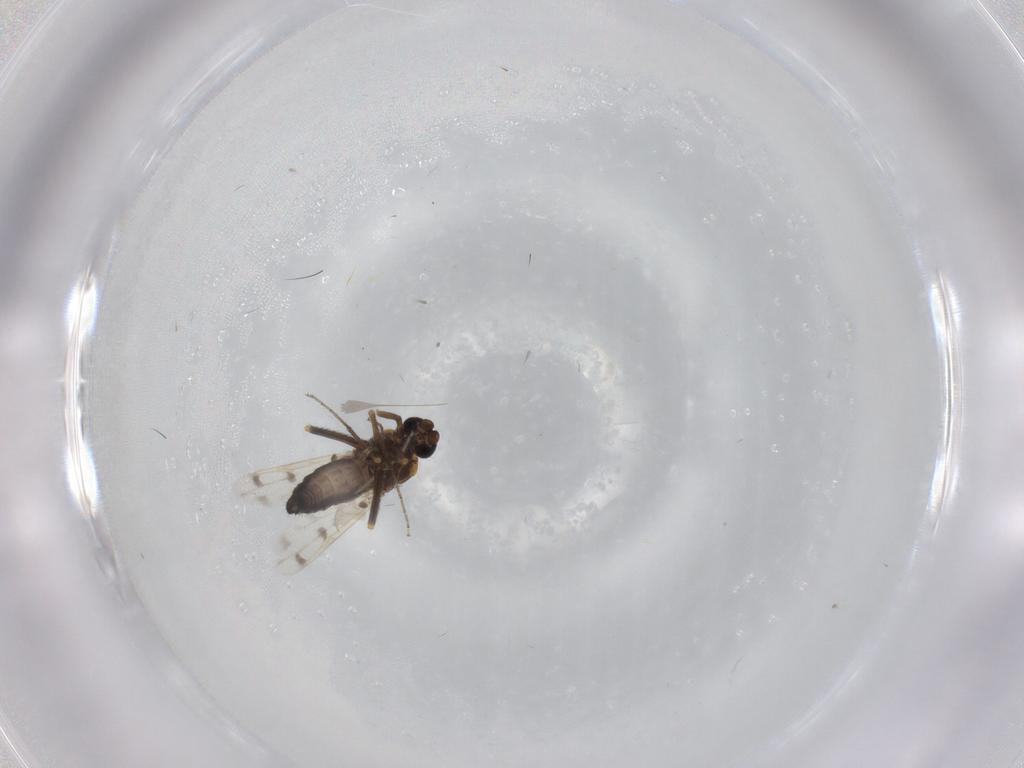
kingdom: Animalia
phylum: Arthropoda
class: Insecta
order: Diptera
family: Ceratopogonidae
